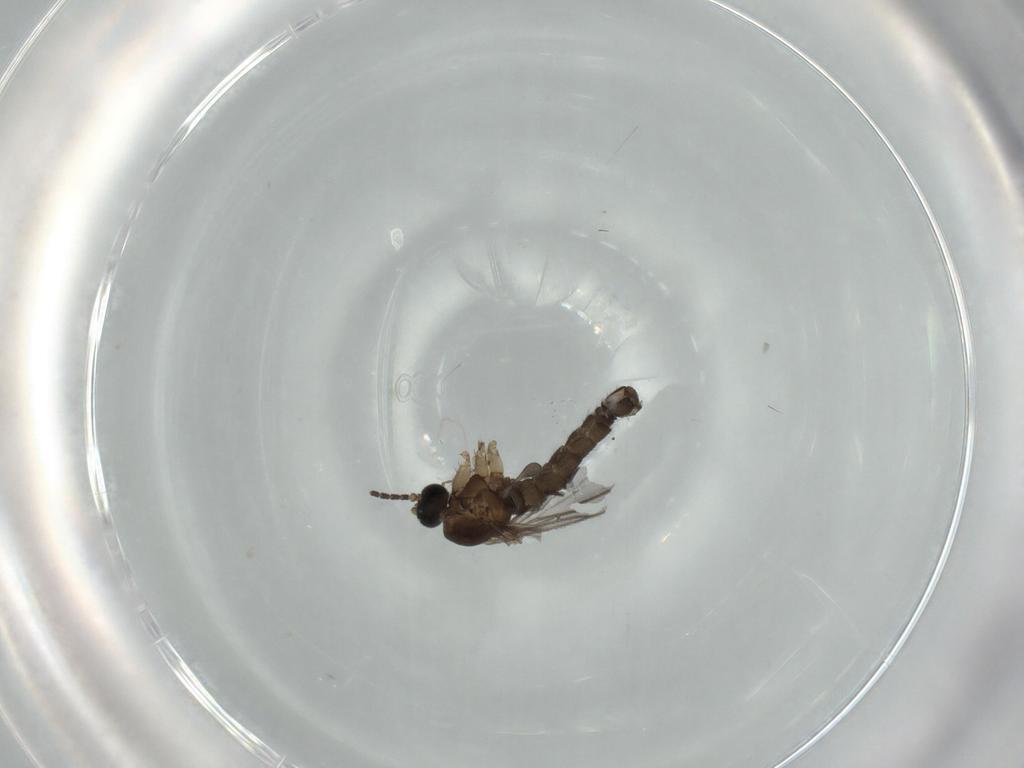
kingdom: Animalia
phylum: Arthropoda
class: Insecta
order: Diptera
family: Sciaridae
